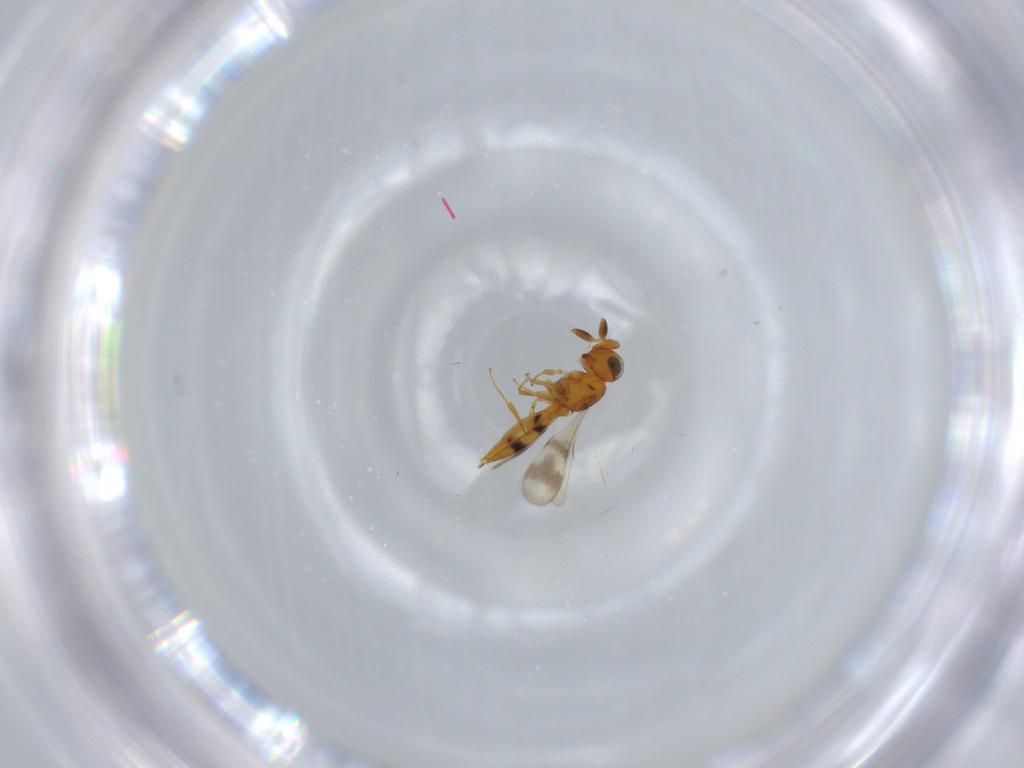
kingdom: Animalia
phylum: Arthropoda
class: Insecta
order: Hymenoptera
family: Scelionidae
